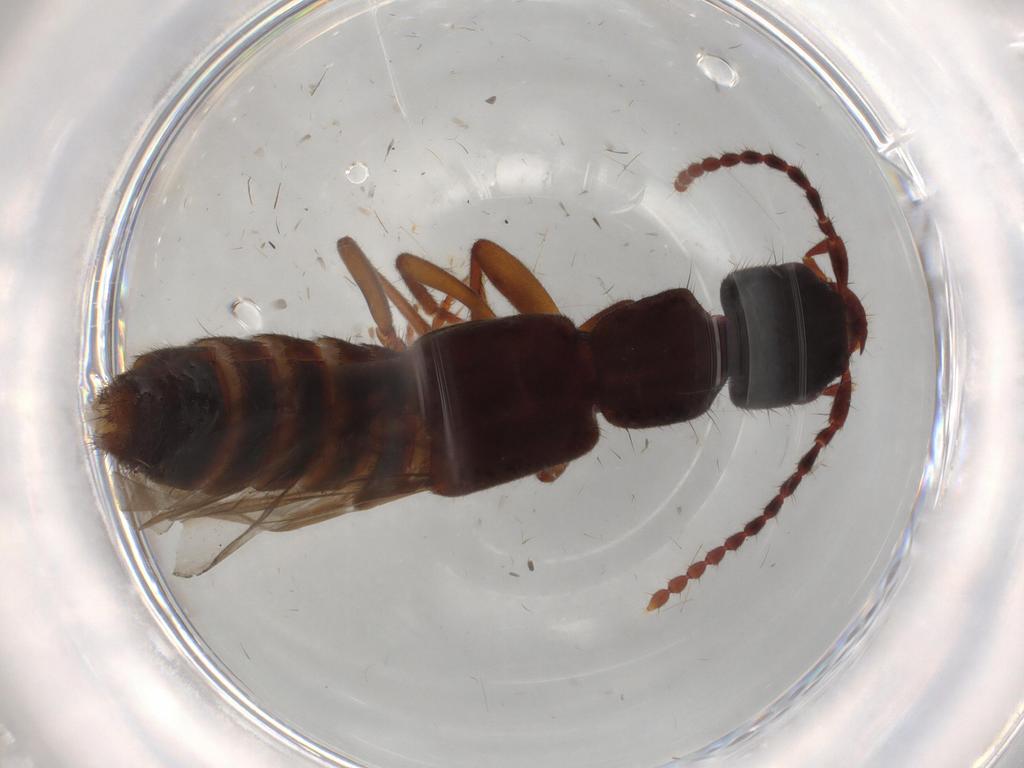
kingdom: Animalia
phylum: Arthropoda
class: Insecta
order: Coleoptera
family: Staphylinidae
